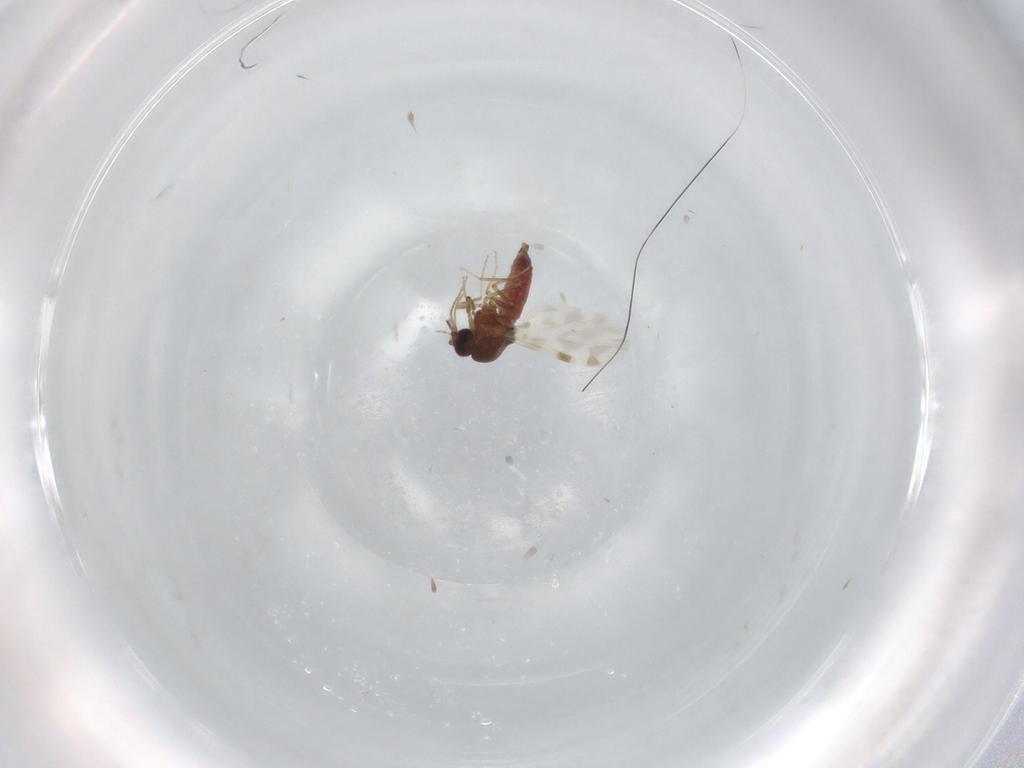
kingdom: Animalia
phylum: Arthropoda
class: Insecta
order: Diptera
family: Ceratopogonidae
